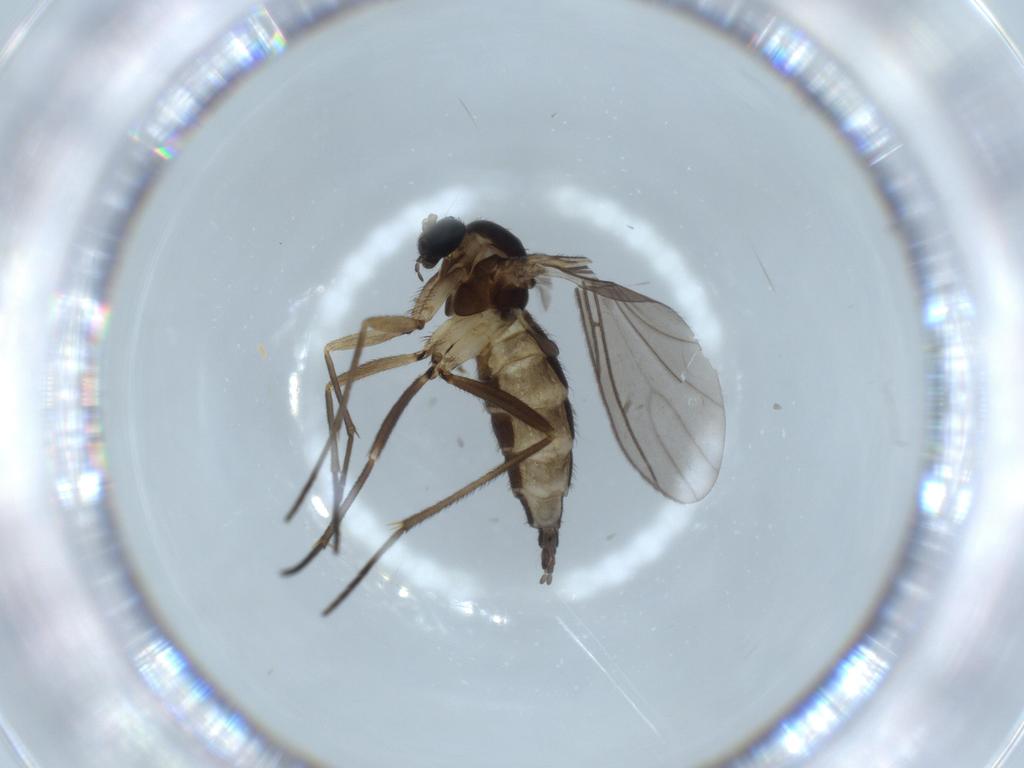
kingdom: Animalia
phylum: Arthropoda
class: Insecta
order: Diptera
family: Sciaridae
